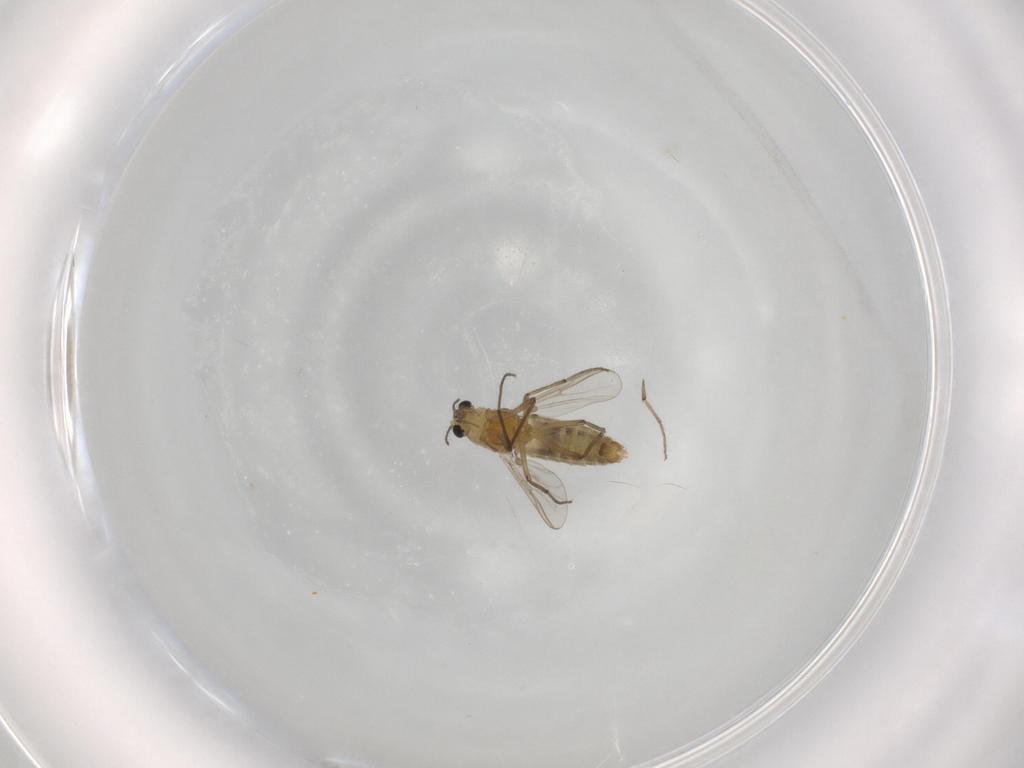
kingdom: Animalia
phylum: Arthropoda
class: Insecta
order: Diptera
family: Chironomidae
